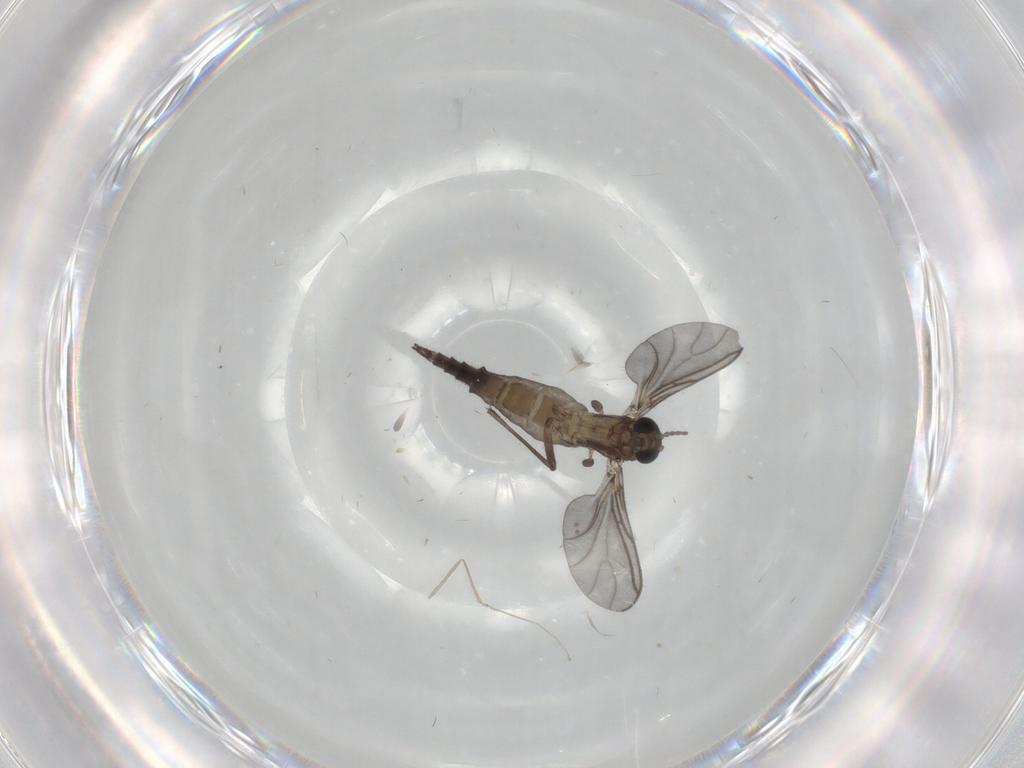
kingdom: Animalia
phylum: Arthropoda
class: Insecta
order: Diptera
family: Sciaridae
